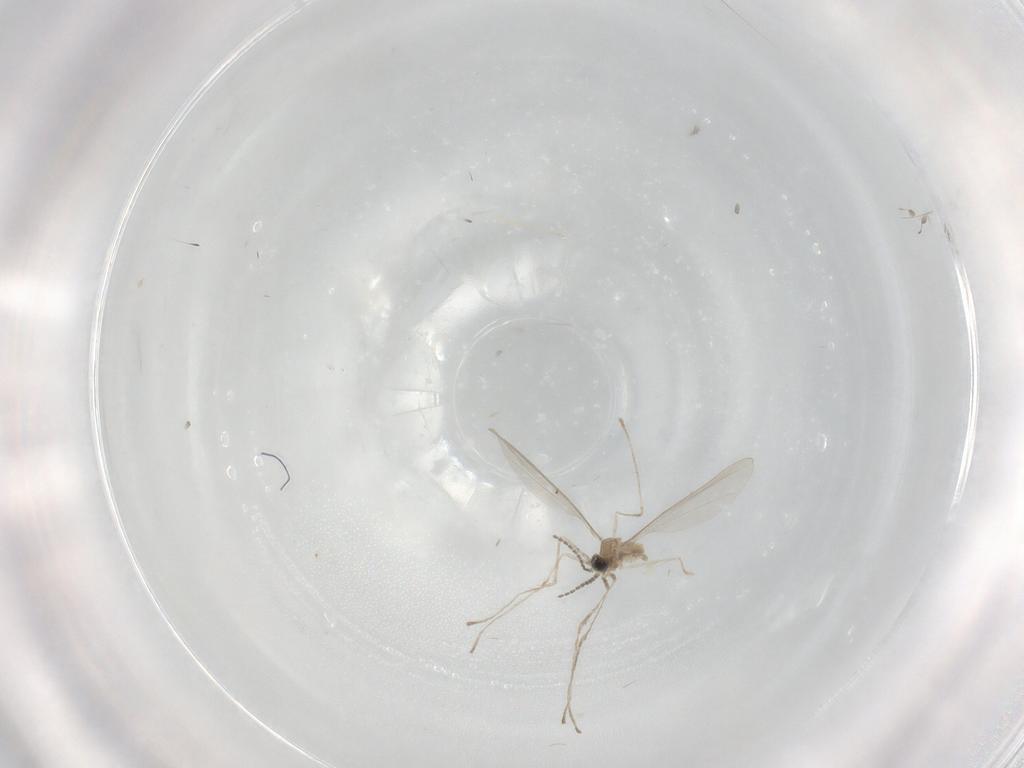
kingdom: Animalia
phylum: Arthropoda
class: Insecta
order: Diptera
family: Cecidomyiidae
